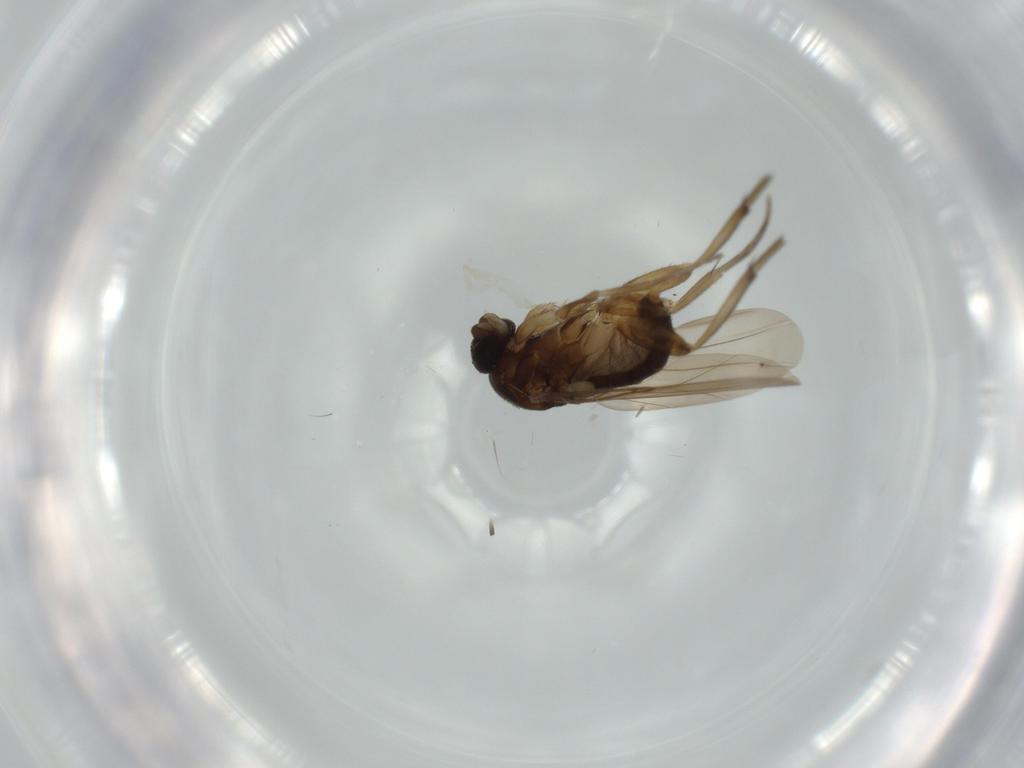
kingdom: Animalia
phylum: Arthropoda
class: Insecta
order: Diptera
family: Phoridae
